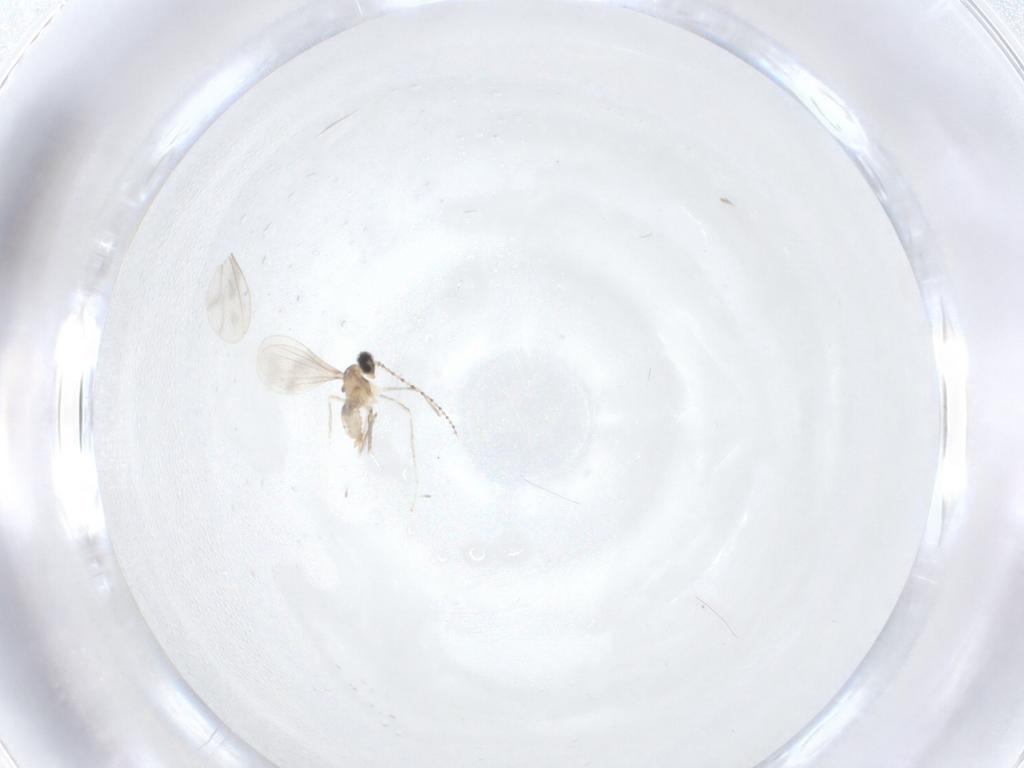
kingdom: Animalia
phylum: Arthropoda
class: Insecta
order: Diptera
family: Cecidomyiidae
